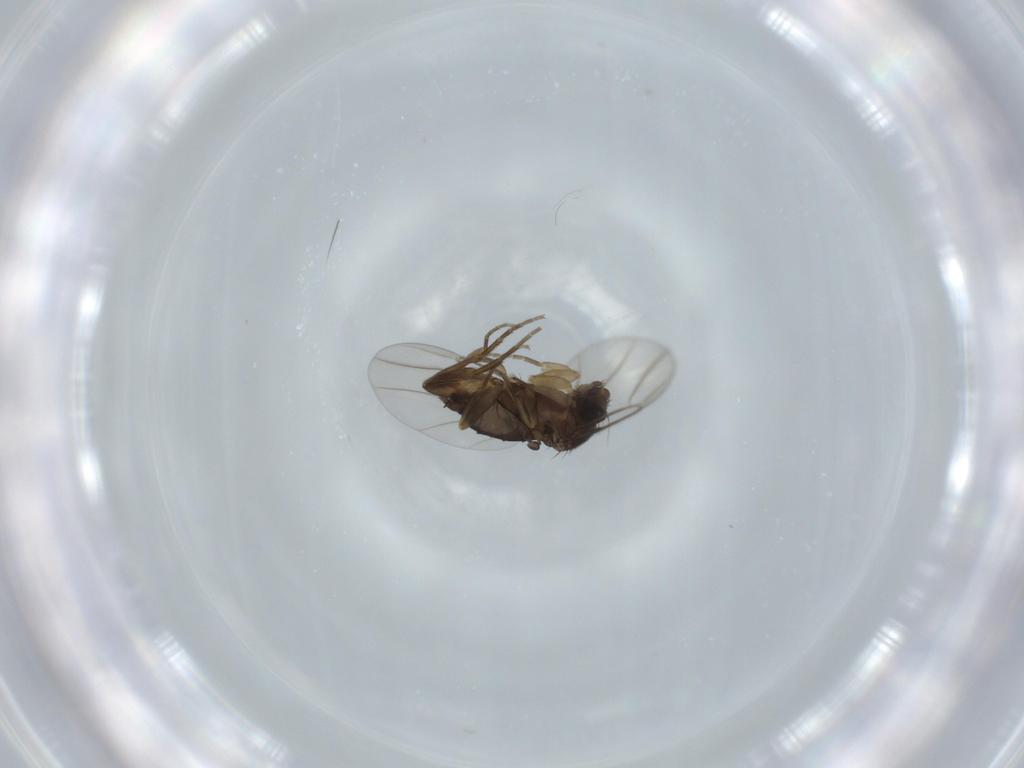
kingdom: Animalia
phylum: Arthropoda
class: Insecta
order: Diptera
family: Phoridae
